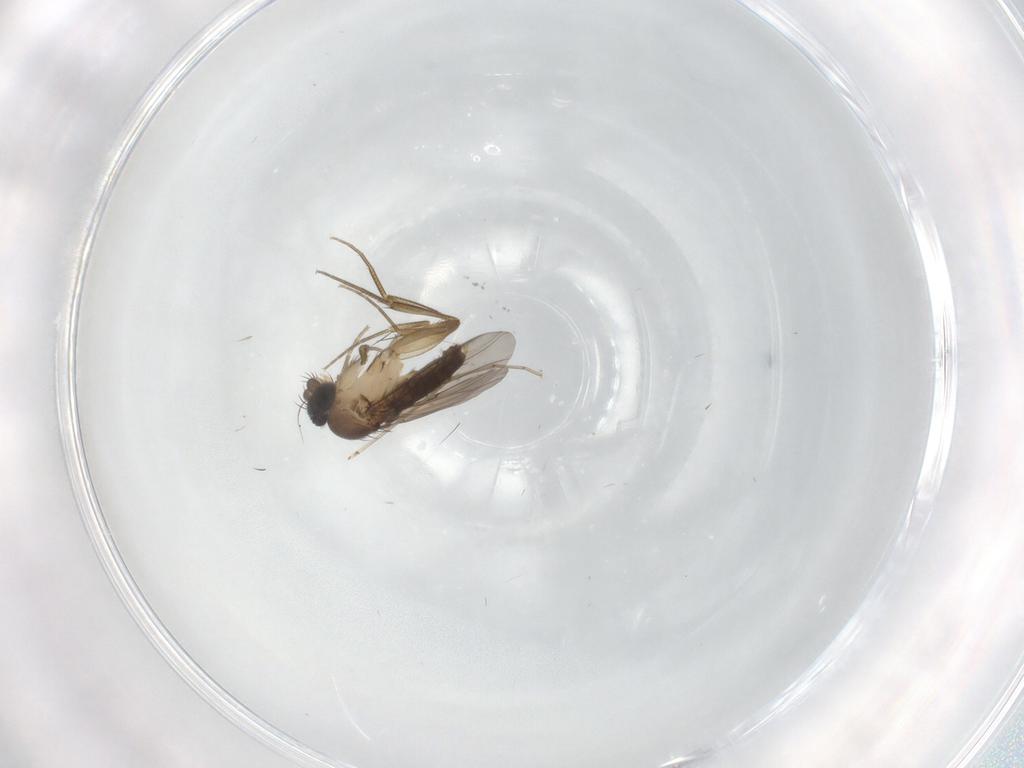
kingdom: Animalia
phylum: Arthropoda
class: Insecta
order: Diptera
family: Phoridae
